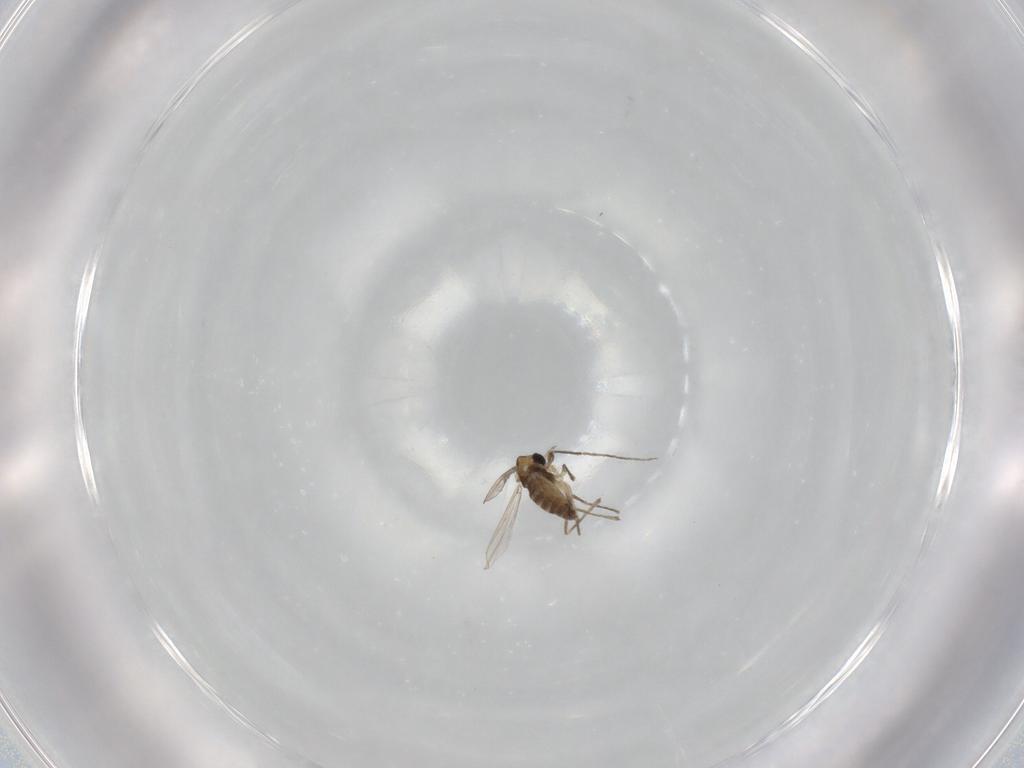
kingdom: Animalia
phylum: Arthropoda
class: Insecta
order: Diptera
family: Chironomidae
